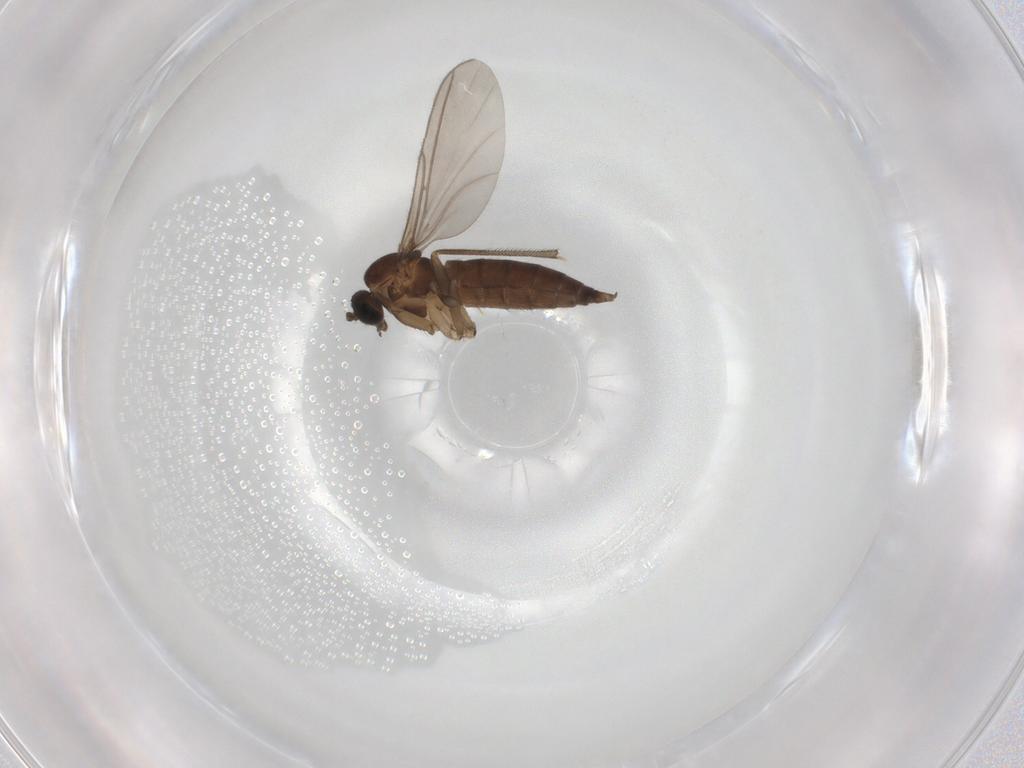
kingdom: Animalia
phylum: Arthropoda
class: Insecta
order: Diptera
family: Sciaridae
